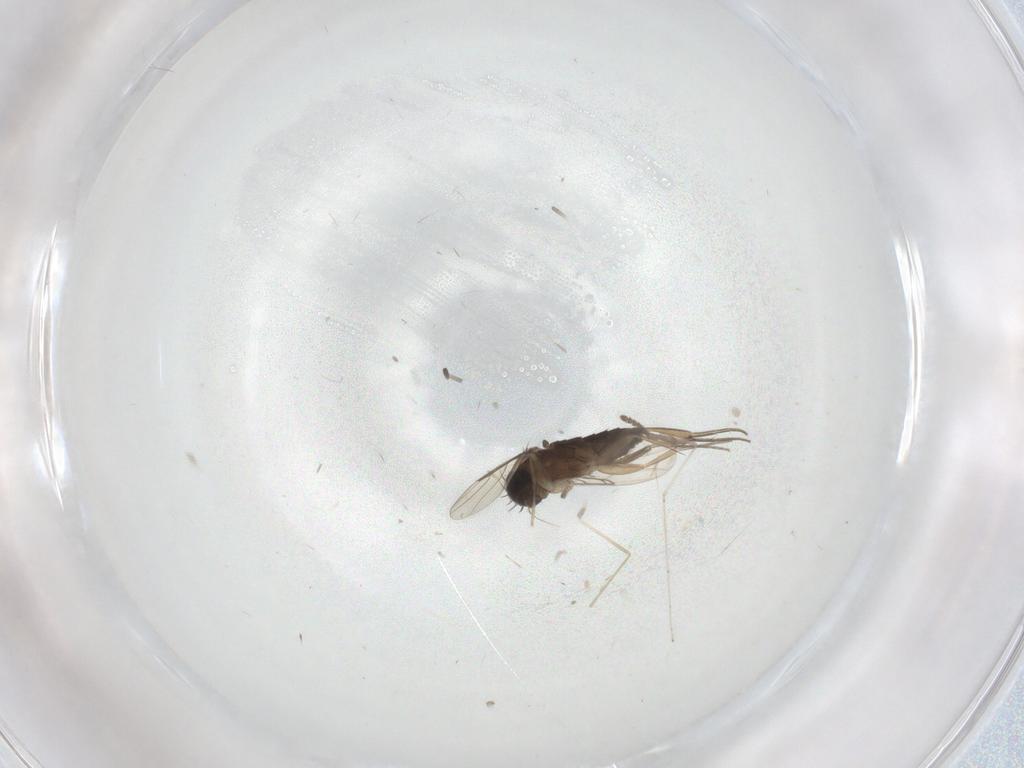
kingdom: Animalia
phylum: Arthropoda
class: Insecta
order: Diptera
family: Phoridae
